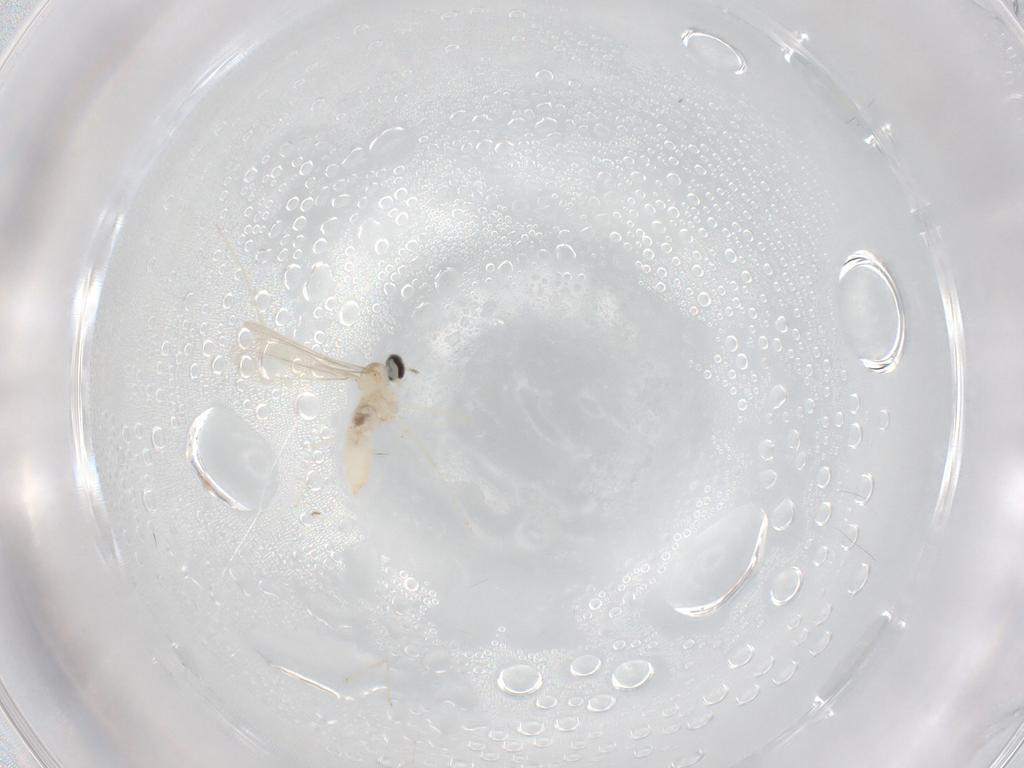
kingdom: Animalia
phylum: Arthropoda
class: Insecta
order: Diptera
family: Cecidomyiidae
